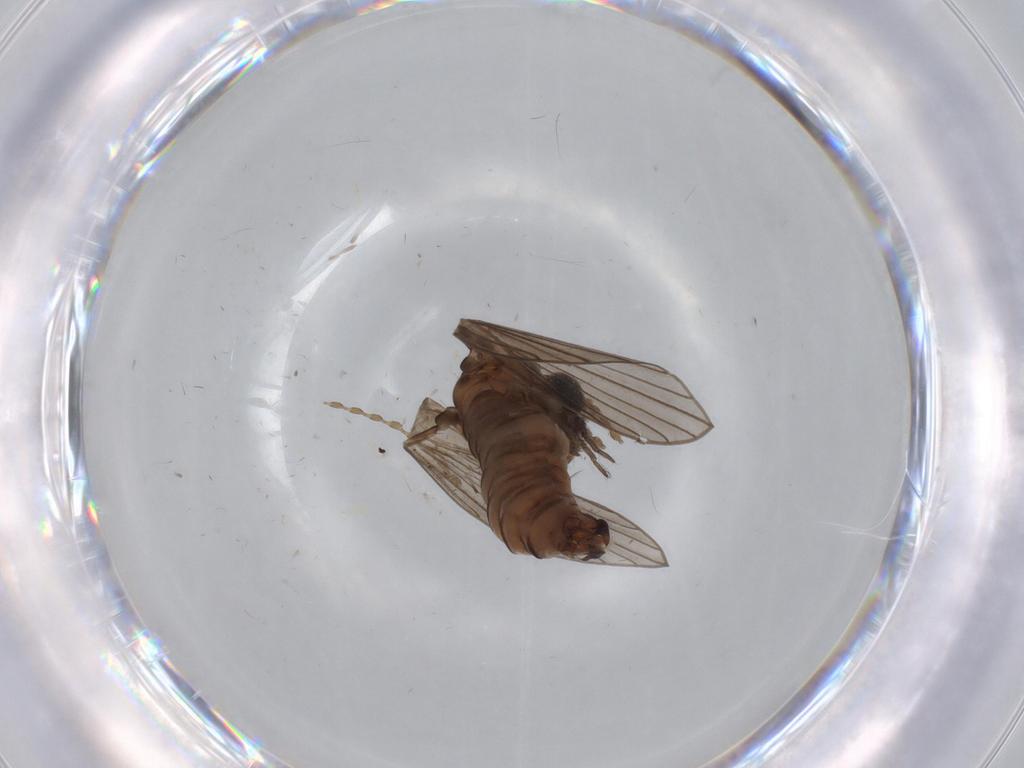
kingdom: Animalia
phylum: Arthropoda
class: Insecta
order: Diptera
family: Psychodidae
